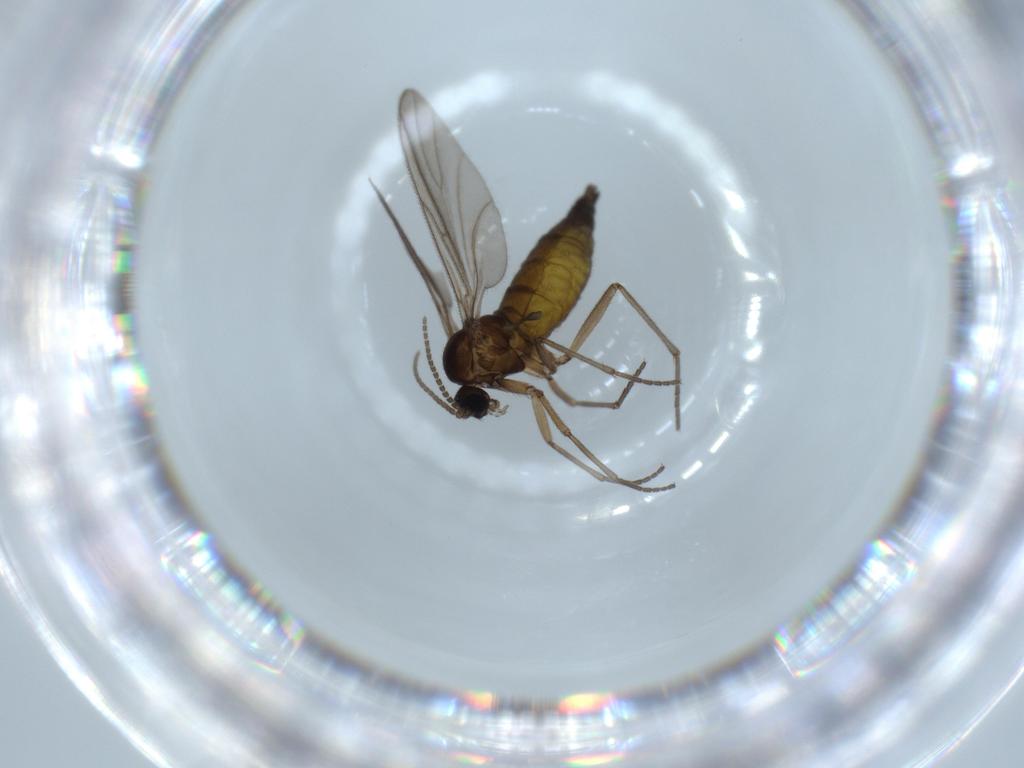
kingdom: Animalia
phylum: Arthropoda
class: Insecta
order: Diptera
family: Sciaridae
